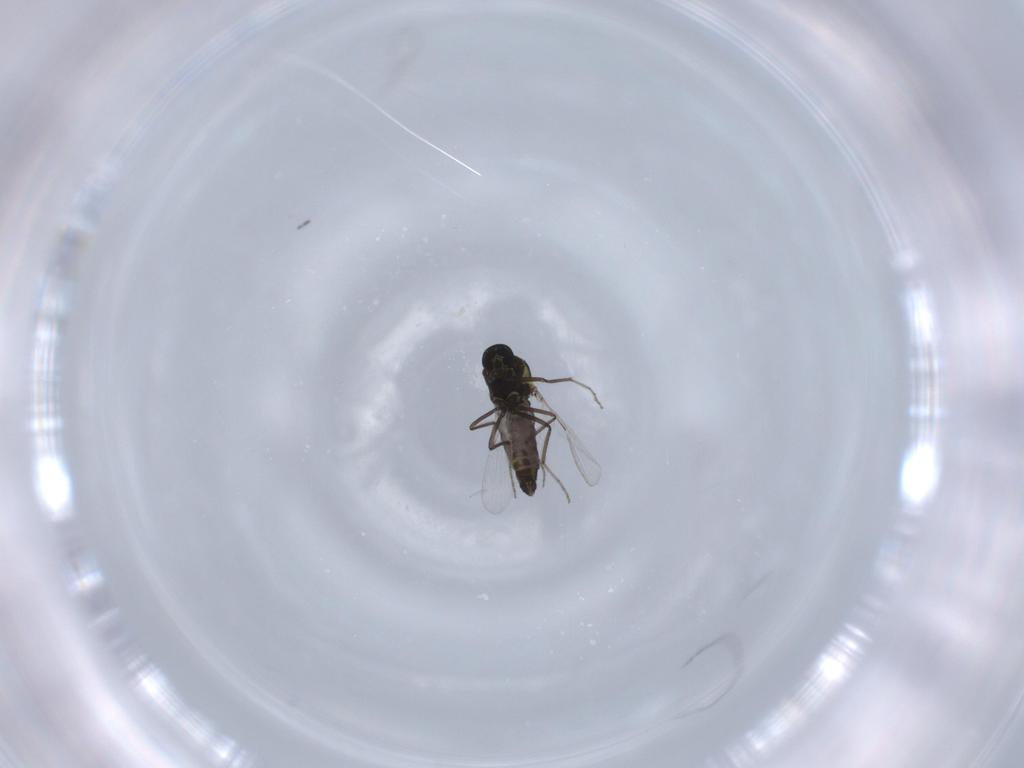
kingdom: Animalia
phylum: Arthropoda
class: Insecta
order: Diptera
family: Ceratopogonidae
